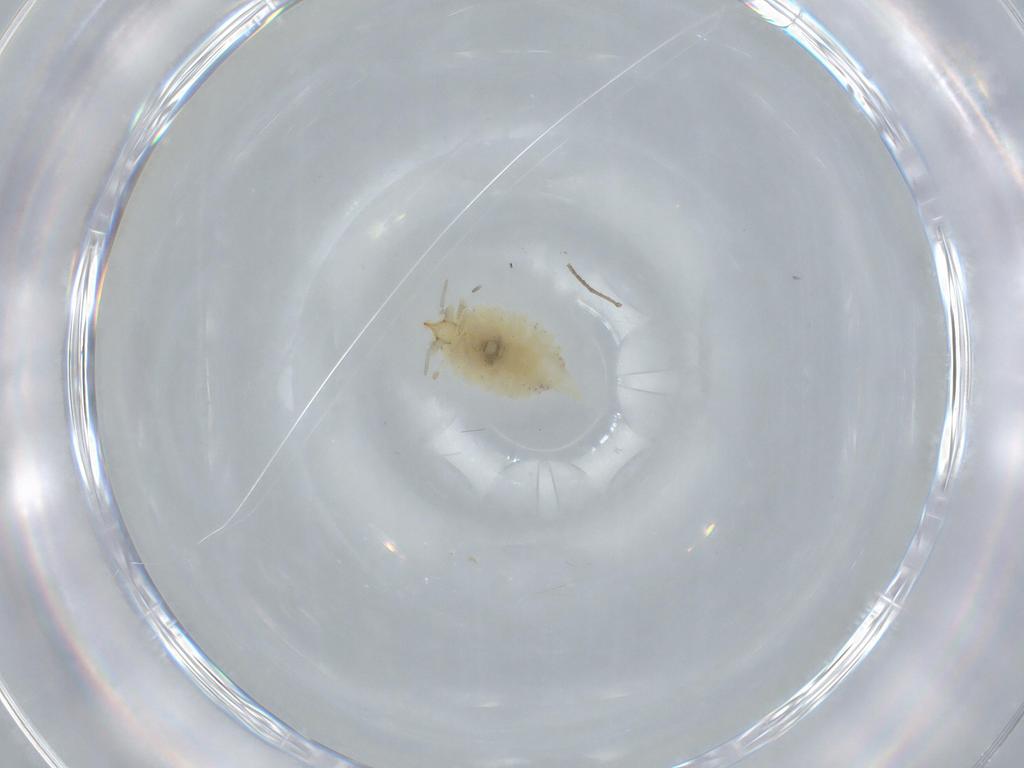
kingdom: Animalia
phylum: Arthropoda
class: Insecta
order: Neuroptera
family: Coniopterygidae
